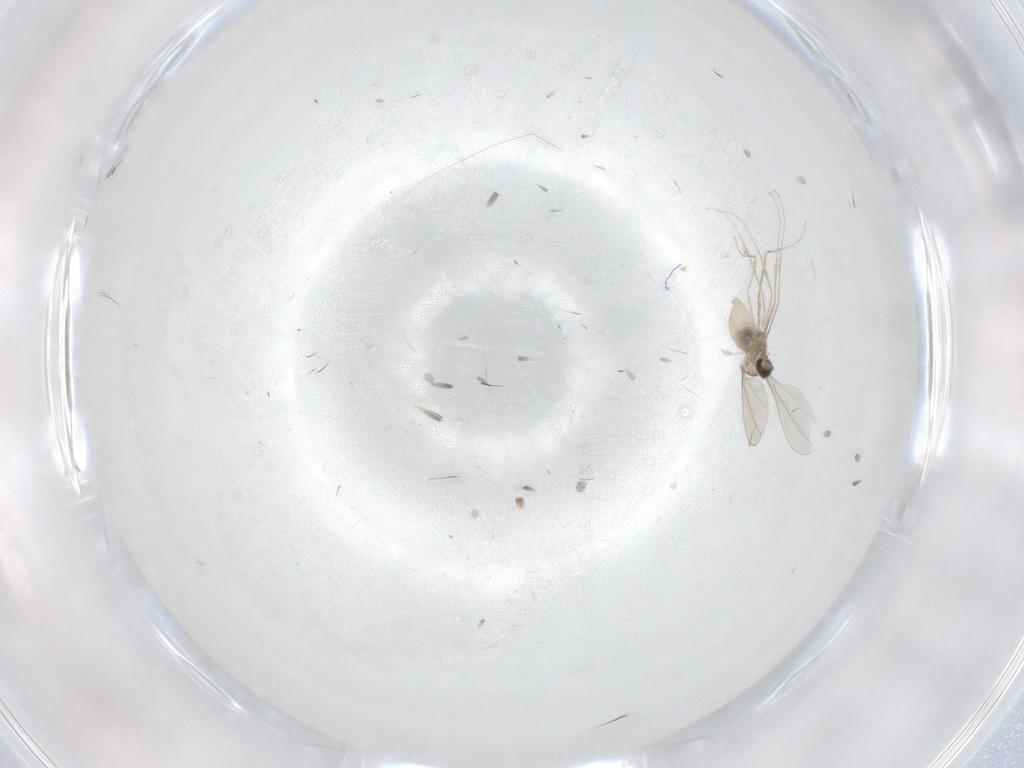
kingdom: Animalia
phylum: Arthropoda
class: Insecta
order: Diptera
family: Cecidomyiidae
